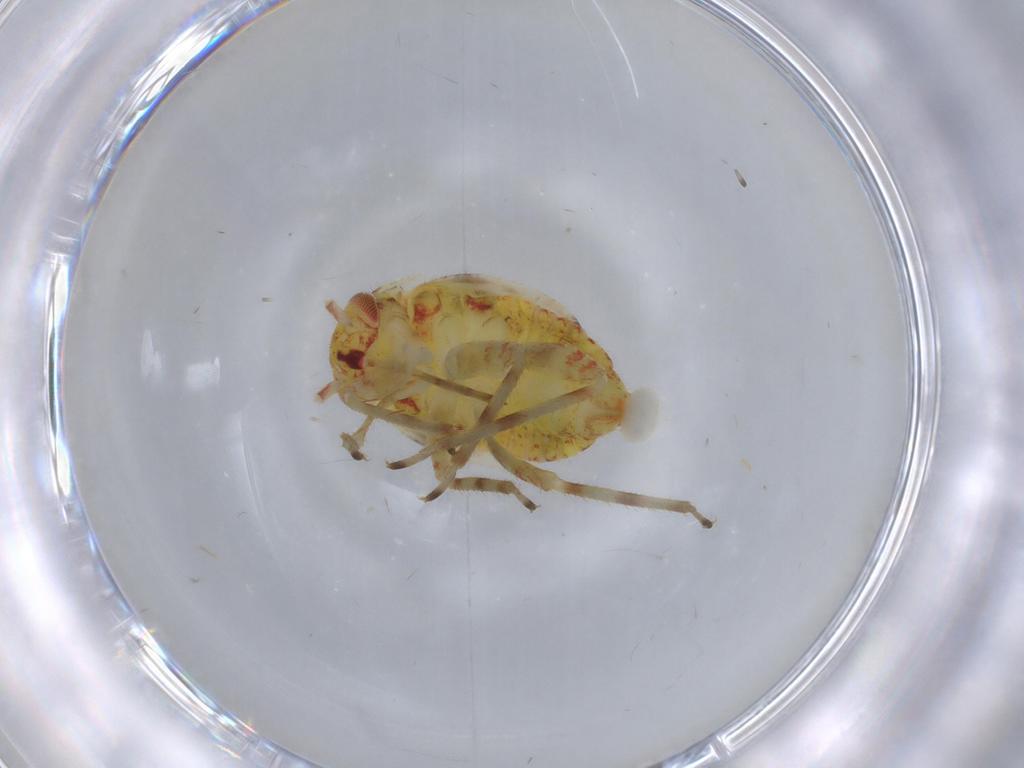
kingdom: Animalia
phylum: Arthropoda
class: Insecta
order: Hemiptera
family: Miridae
